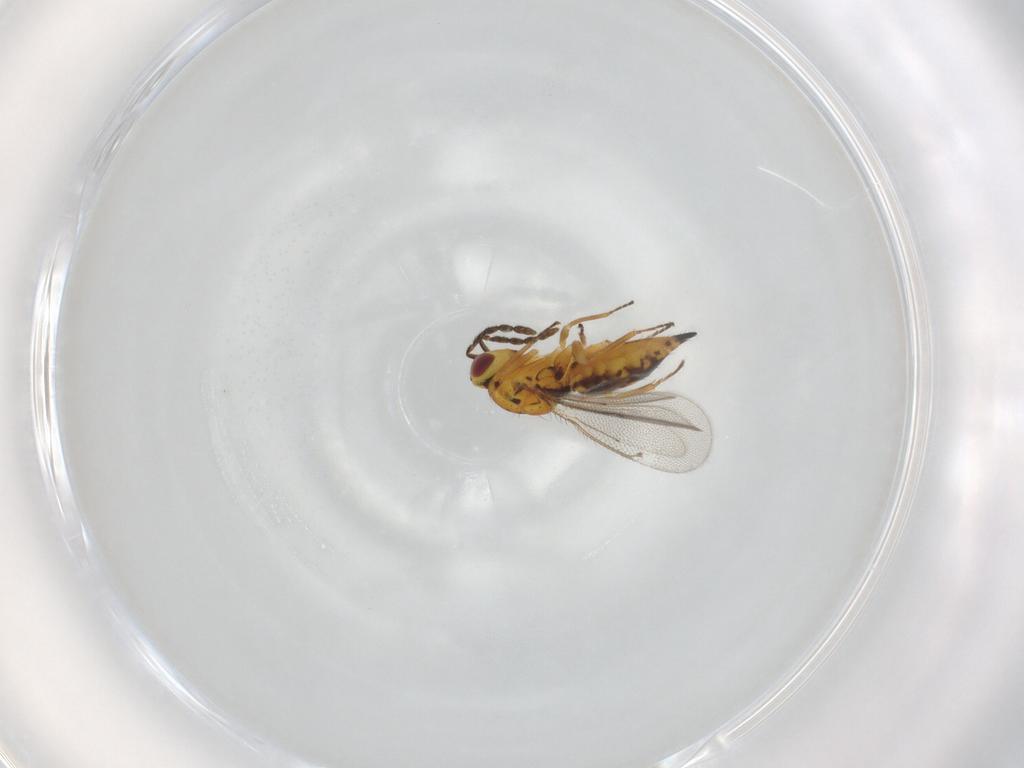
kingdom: Animalia
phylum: Arthropoda
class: Insecta
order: Hymenoptera
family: Eulophidae
